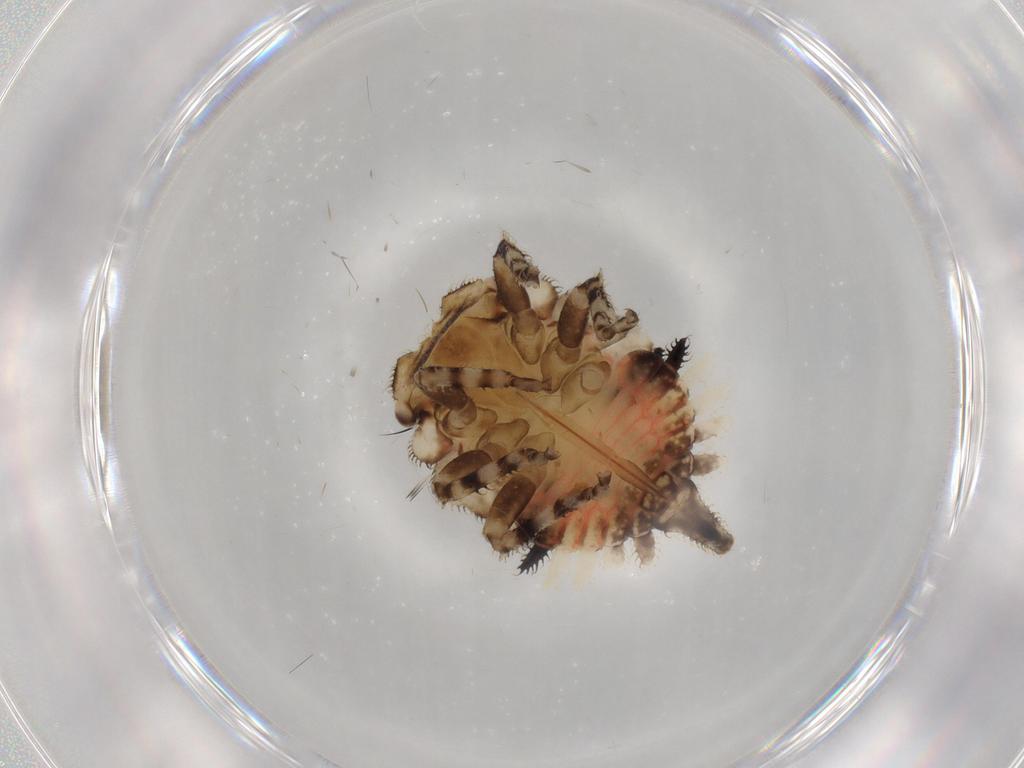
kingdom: Animalia
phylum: Arthropoda
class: Insecta
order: Hemiptera
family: Membracidae
